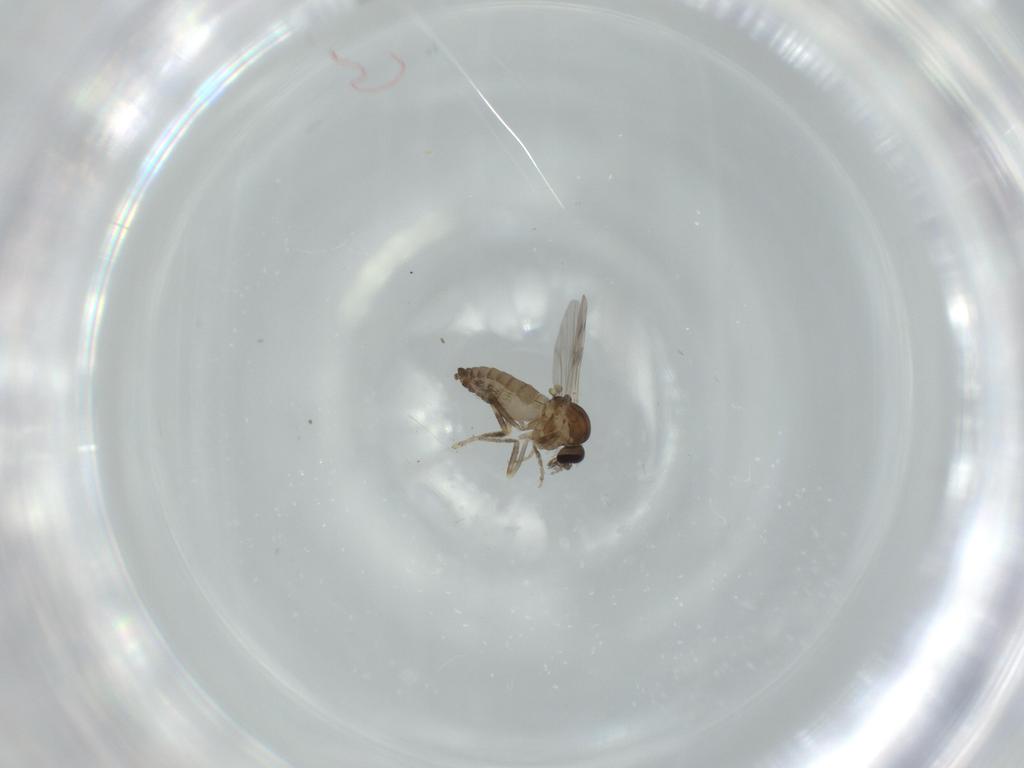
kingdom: Animalia
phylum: Arthropoda
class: Insecta
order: Diptera
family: Ceratopogonidae
